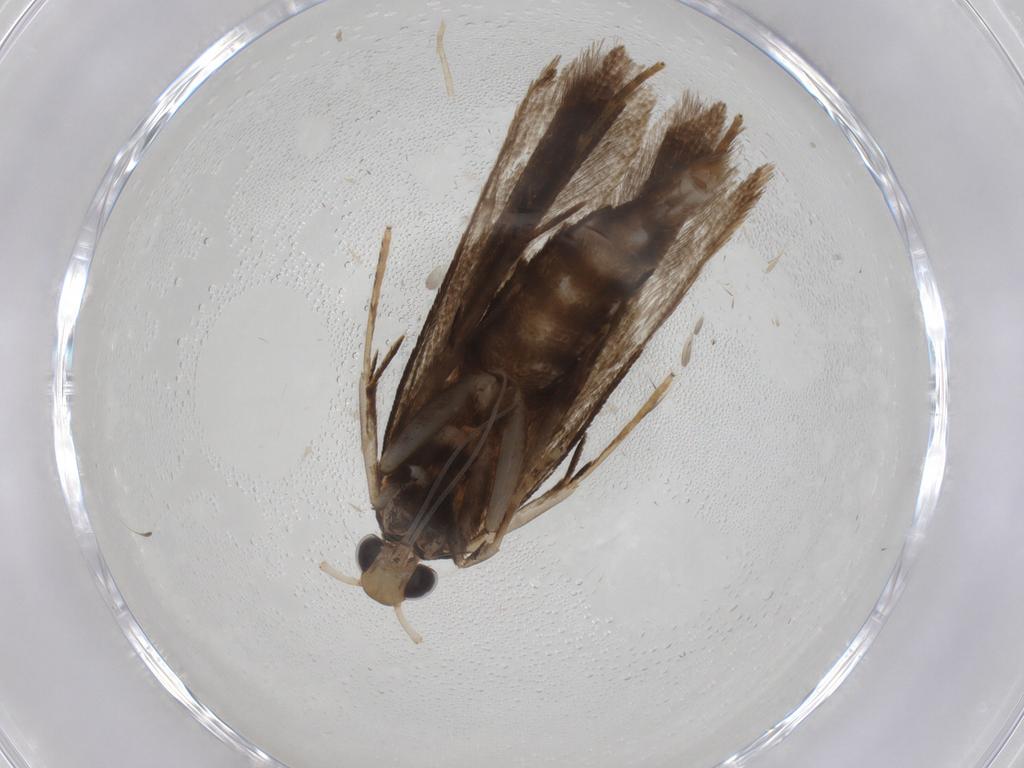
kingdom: Animalia
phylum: Arthropoda
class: Insecta
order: Lepidoptera
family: Gelechiidae
